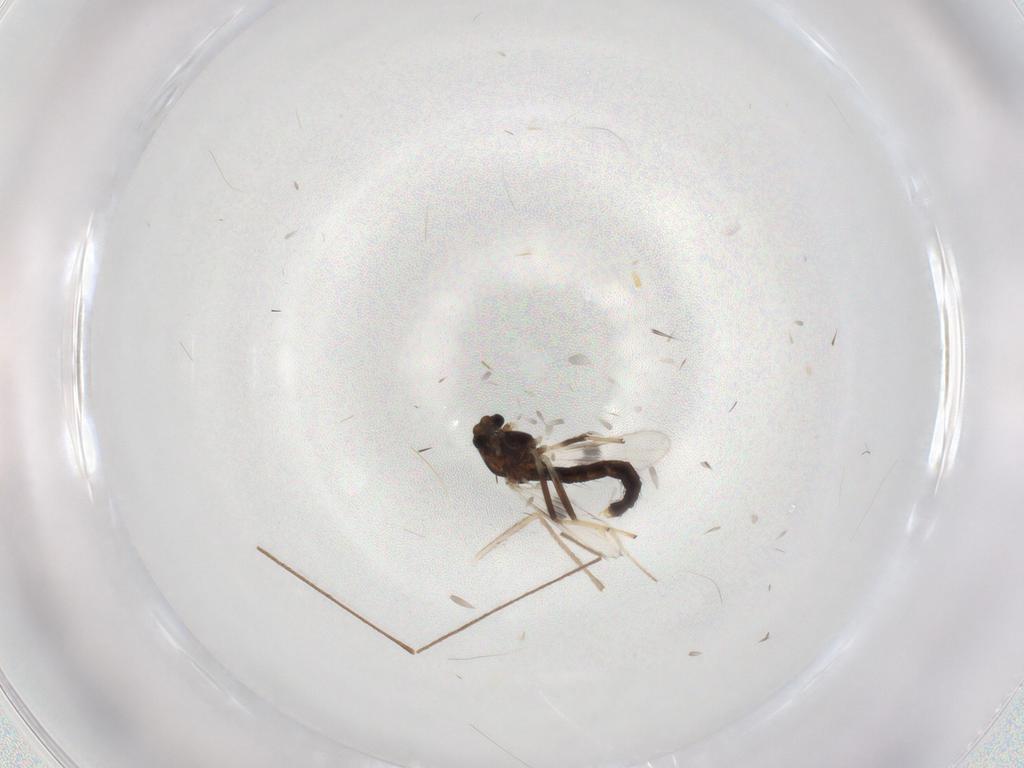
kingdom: Animalia
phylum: Arthropoda
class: Insecta
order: Diptera
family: Chironomidae
